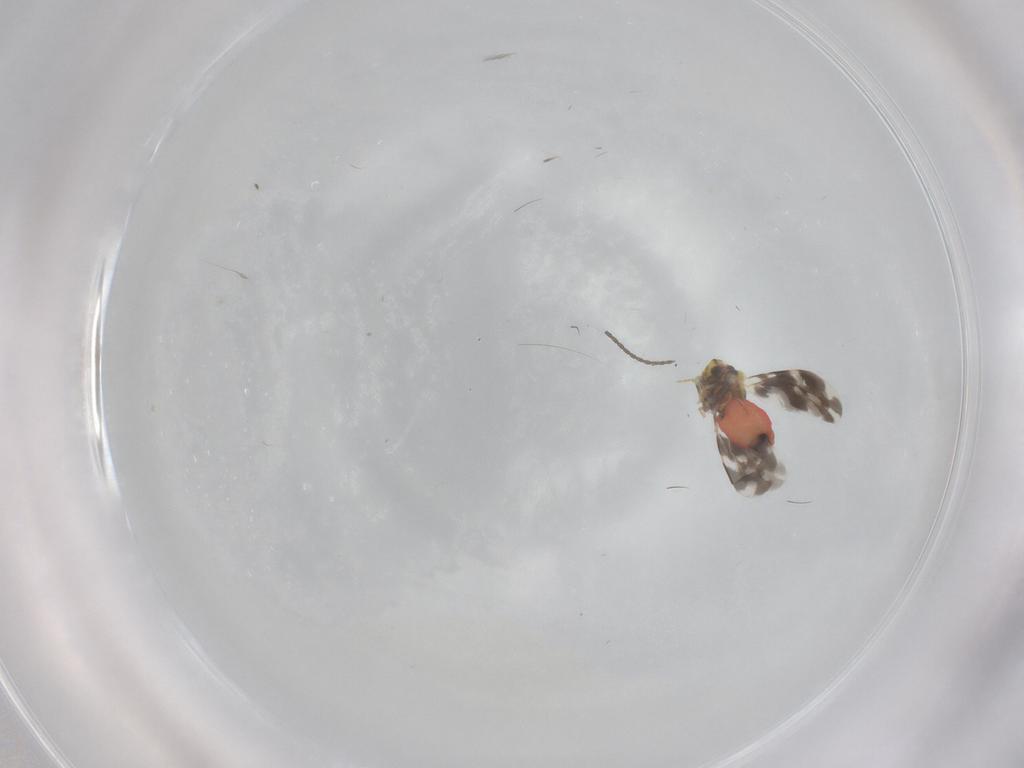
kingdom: Animalia
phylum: Arthropoda
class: Insecta
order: Hemiptera
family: Aleyrodidae
